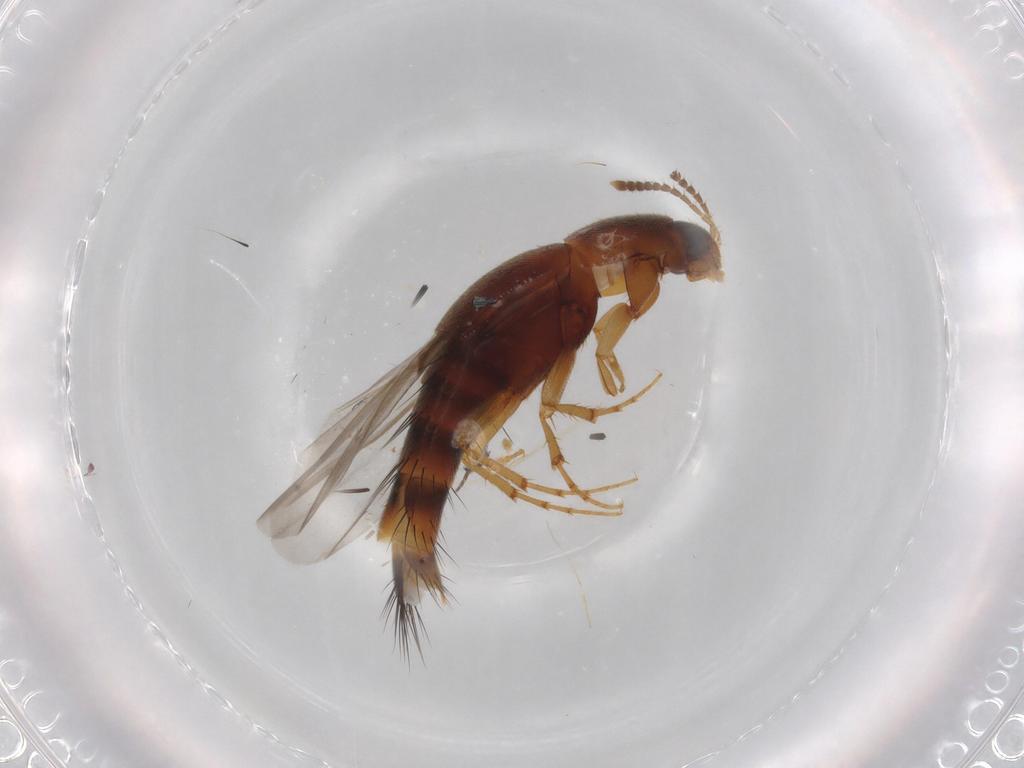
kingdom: Animalia
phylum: Arthropoda
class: Insecta
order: Coleoptera
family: Staphylinidae
